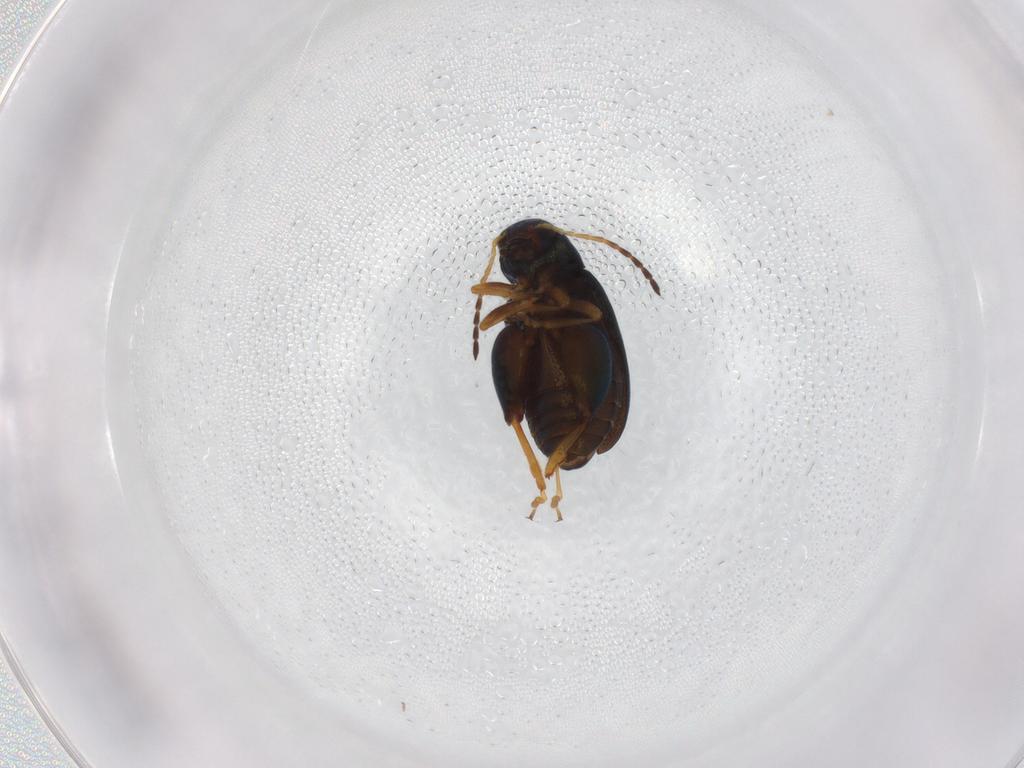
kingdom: Animalia
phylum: Arthropoda
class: Insecta
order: Coleoptera
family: Chrysomelidae
